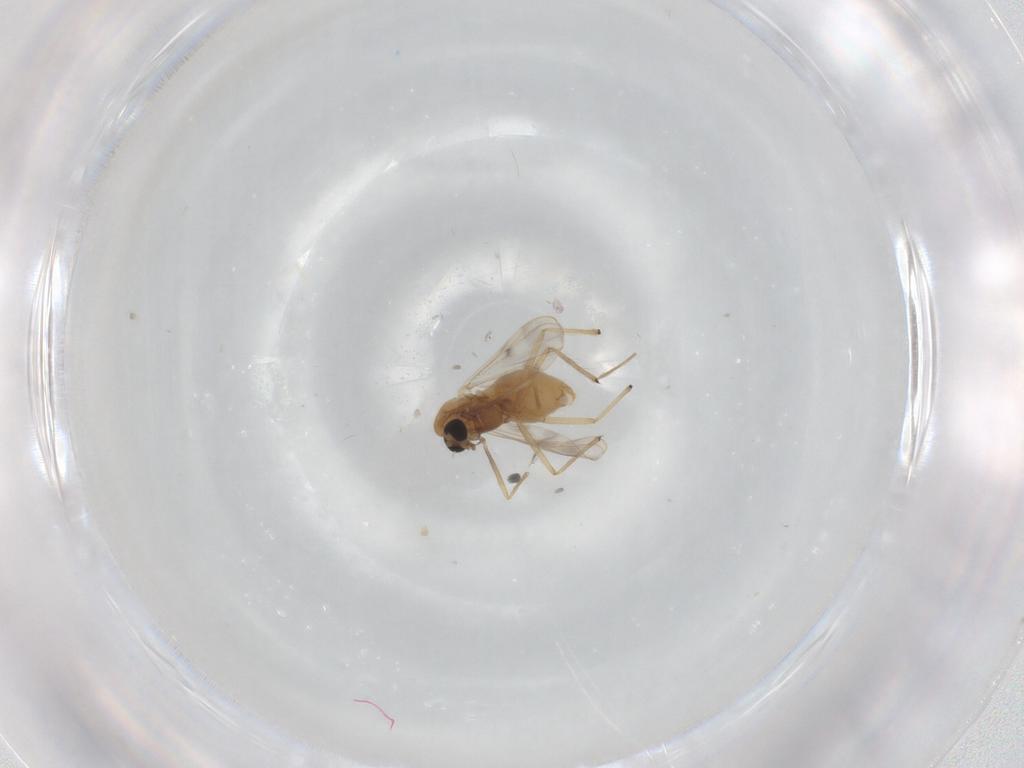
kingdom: Animalia
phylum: Arthropoda
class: Insecta
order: Diptera
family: Chironomidae
